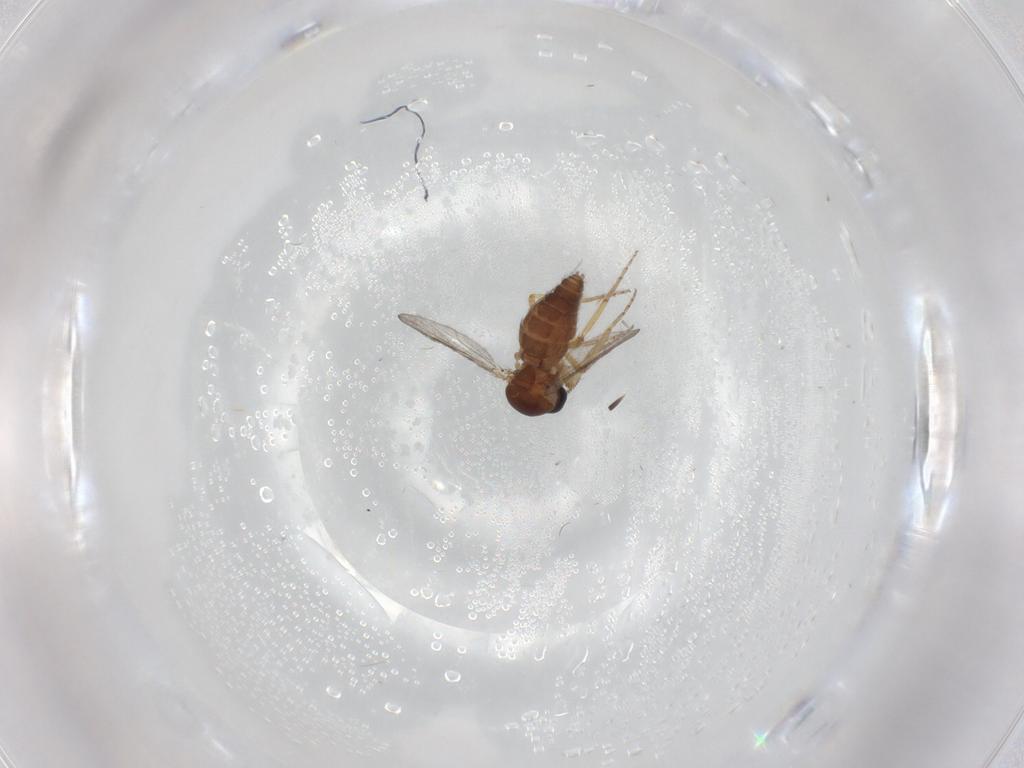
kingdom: Animalia
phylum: Arthropoda
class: Insecta
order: Diptera
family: Ceratopogonidae
